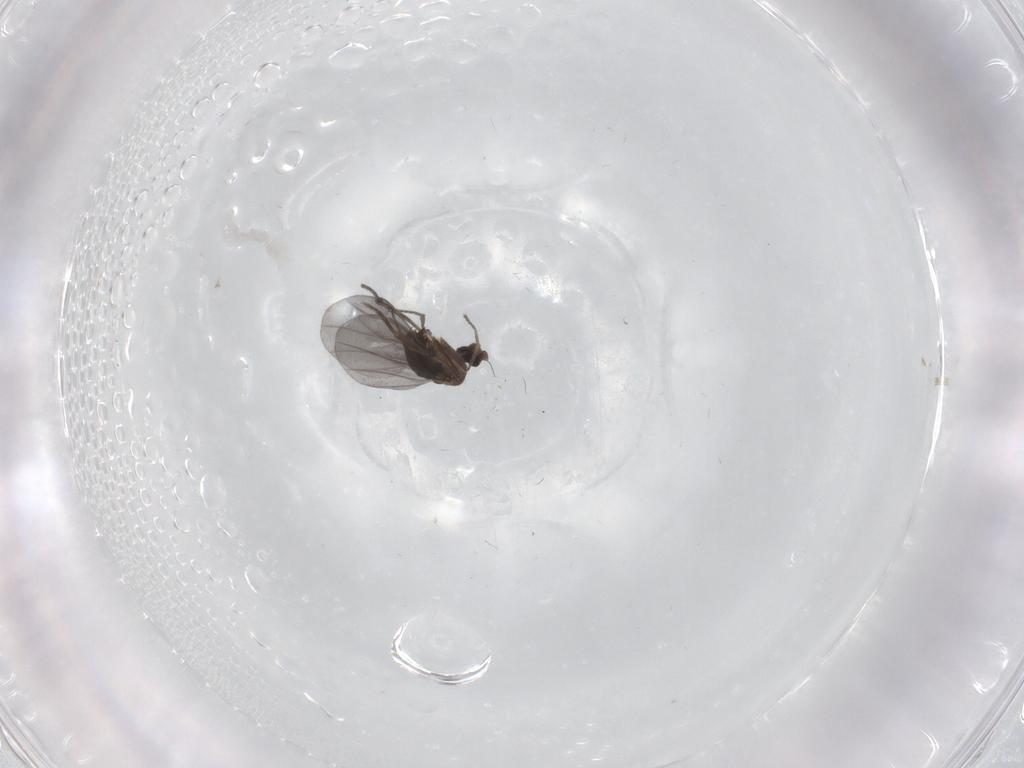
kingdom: Animalia
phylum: Arthropoda
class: Insecta
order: Diptera
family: Phoridae
